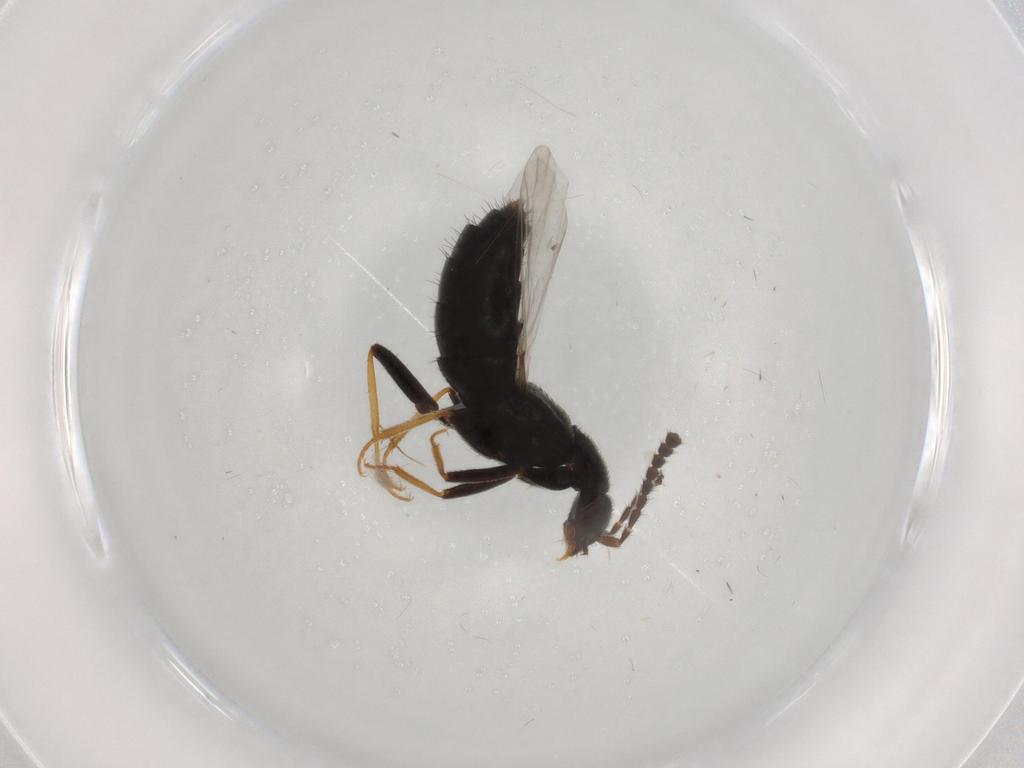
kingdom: Animalia
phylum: Arthropoda
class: Insecta
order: Coleoptera
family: Staphylinidae
